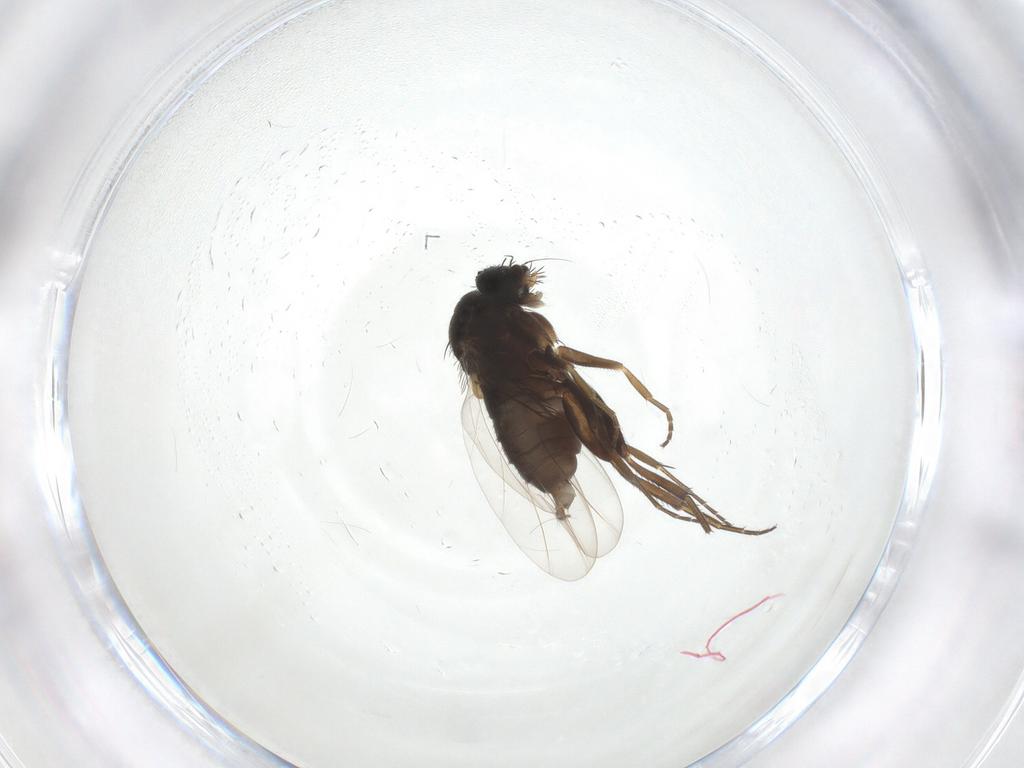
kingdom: Animalia
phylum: Arthropoda
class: Insecta
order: Diptera
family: Phoridae
